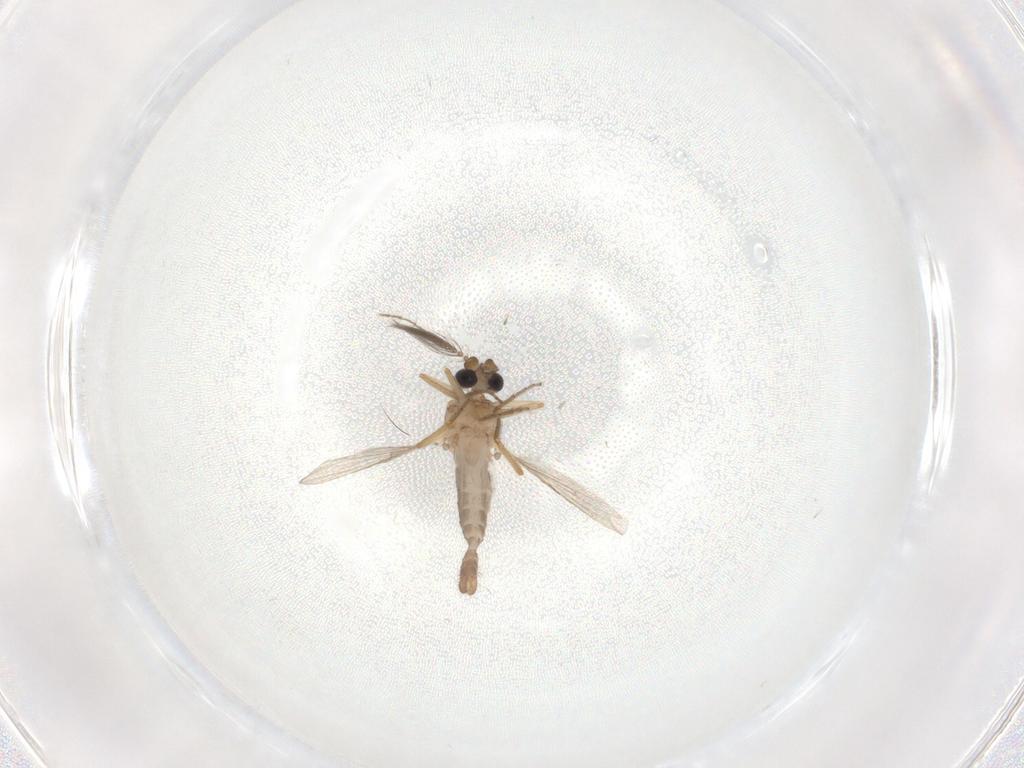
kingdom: Animalia
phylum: Arthropoda
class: Insecta
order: Diptera
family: Ceratopogonidae
